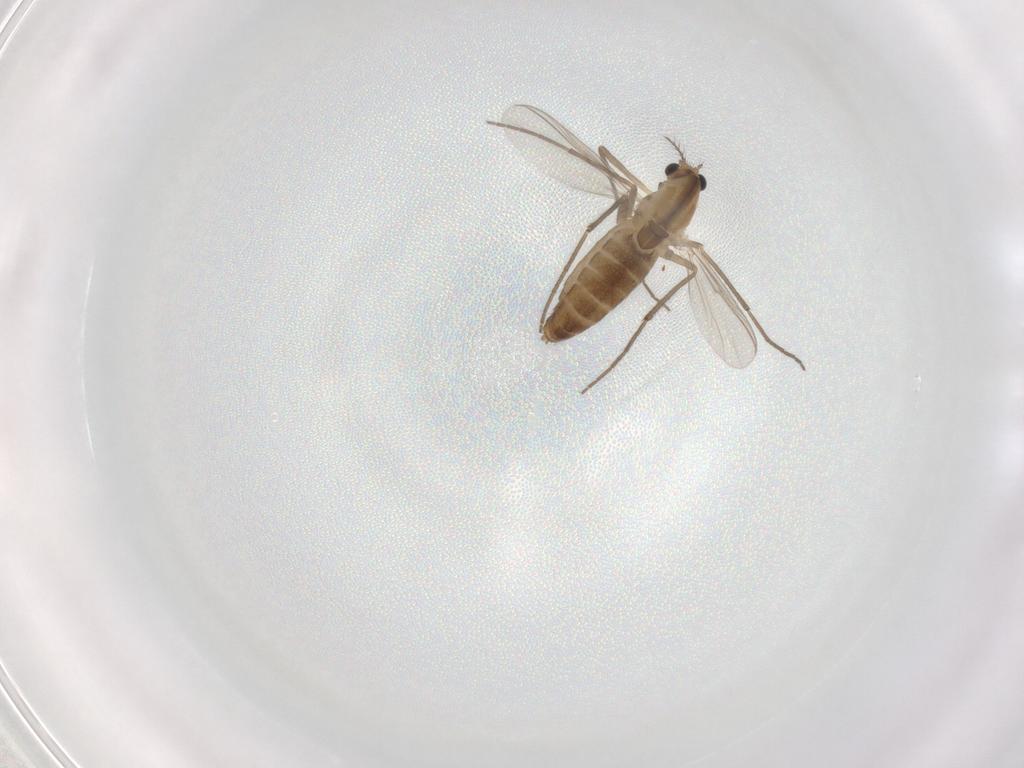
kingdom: Animalia
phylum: Arthropoda
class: Insecta
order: Diptera
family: Chironomidae
